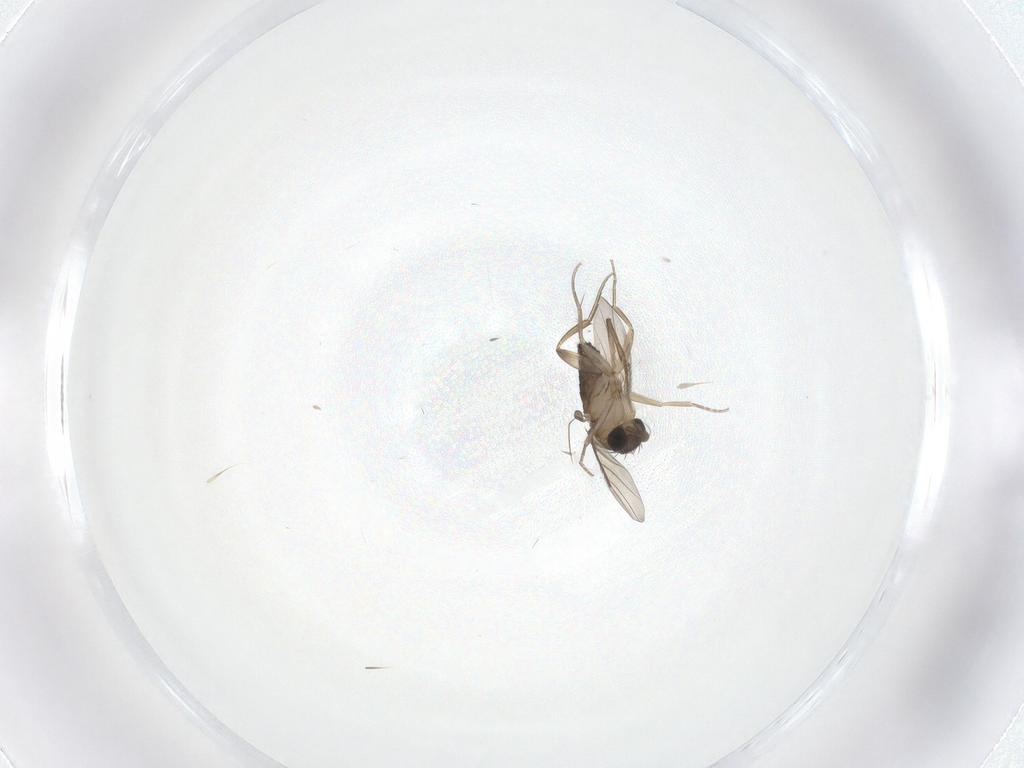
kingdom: Animalia
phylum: Arthropoda
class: Insecta
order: Diptera
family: Phoridae
